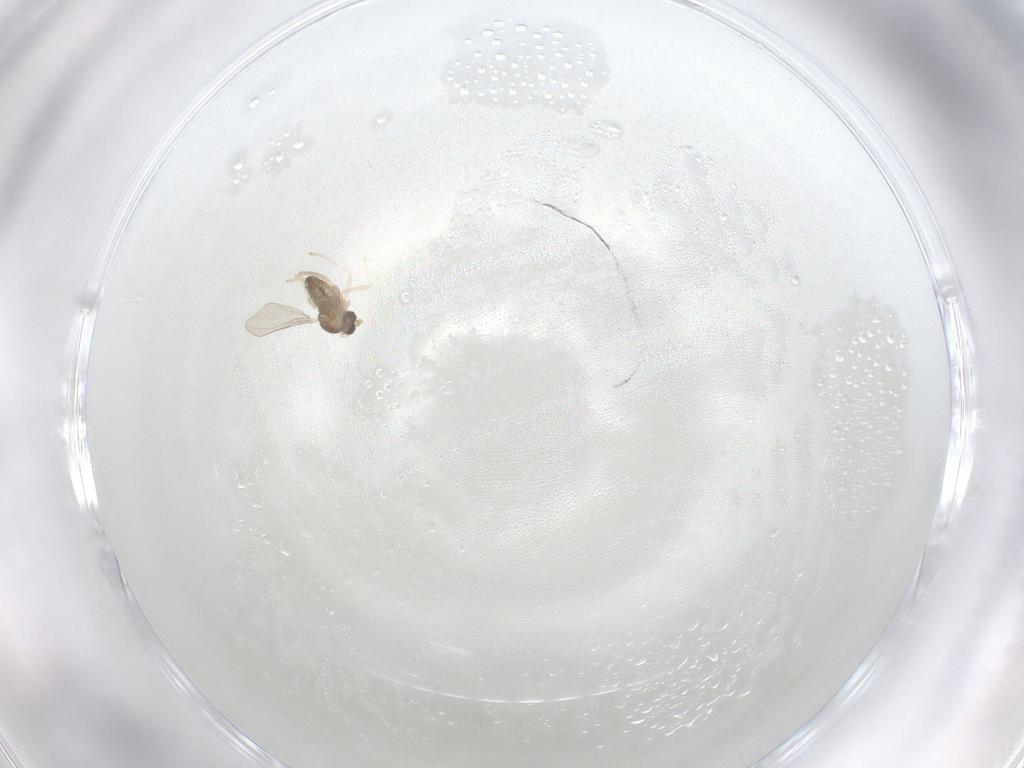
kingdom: Animalia
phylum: Arthropoda
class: Insecta
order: Diptera
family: Cecidomyiidae
